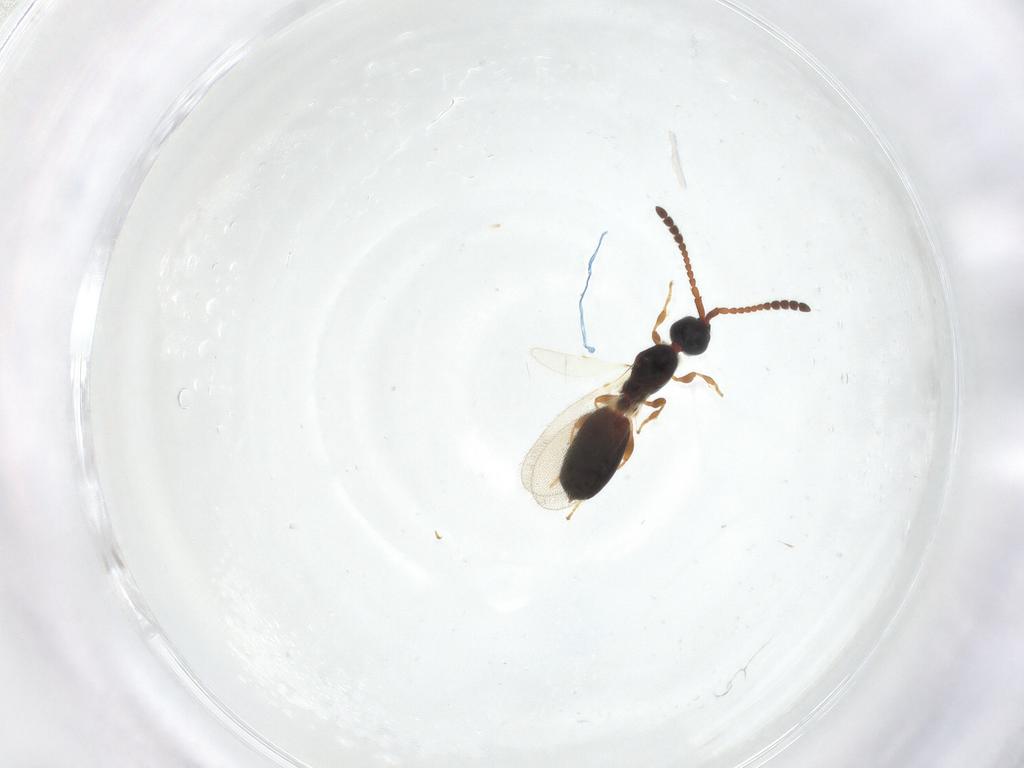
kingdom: Animalia
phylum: Arthropoda
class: Insecta
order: Hymenoptera
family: Diapriidae
